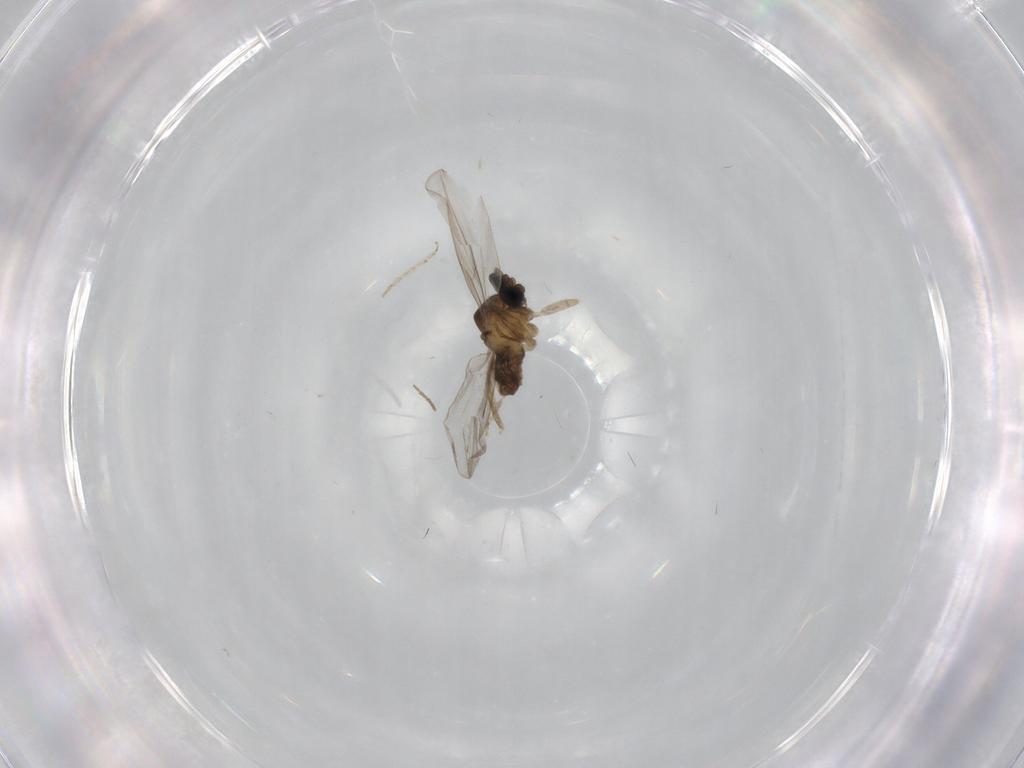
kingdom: Animalia
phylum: Arthropoda
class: Insecta
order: Diptera
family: Cecidomyiidae
